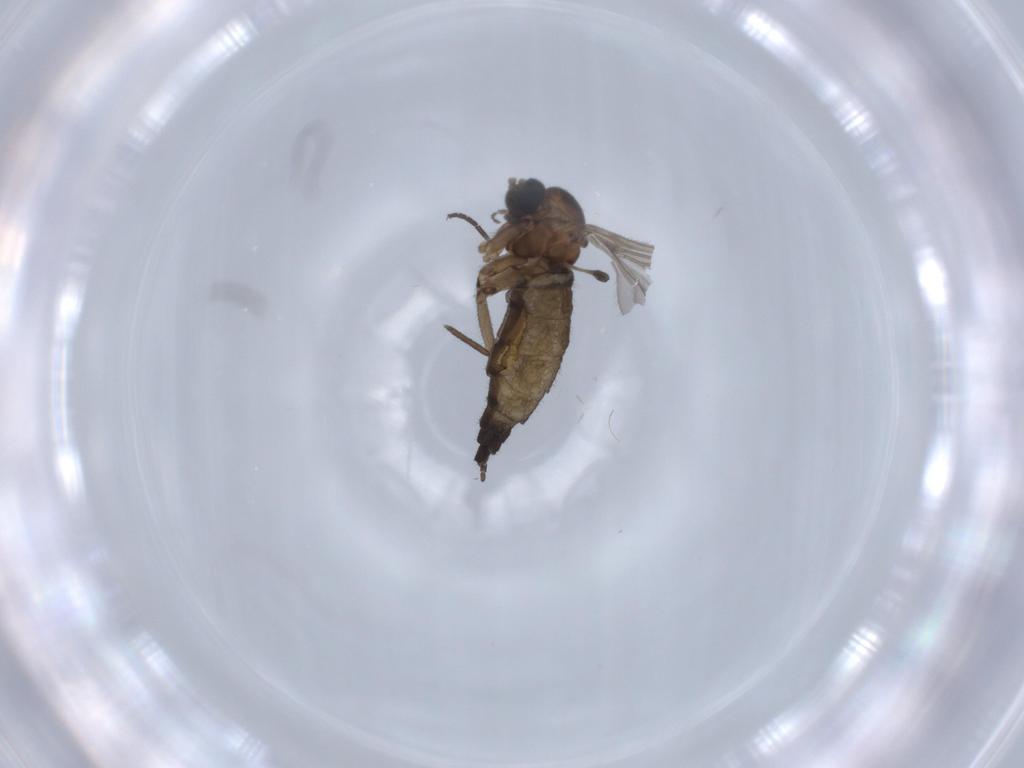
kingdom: Animalia
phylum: Arthropoda
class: Insecta
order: Diptera
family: Sciaridae
